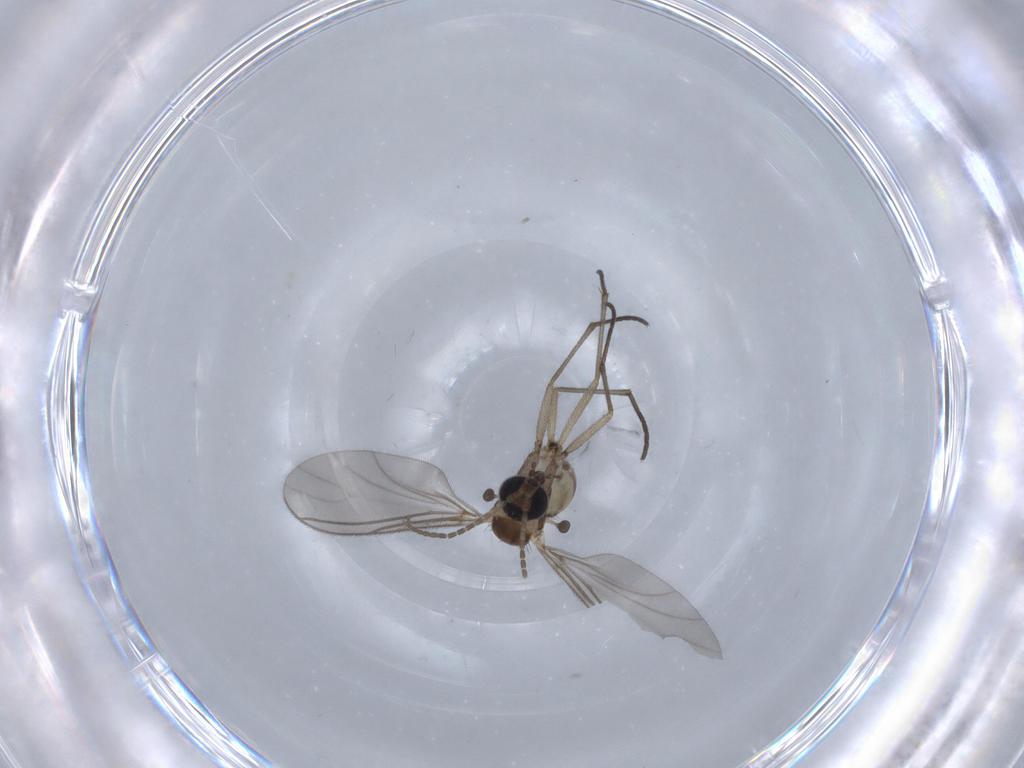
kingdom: Animalia
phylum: Arthropoda
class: Insecta
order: Diptera
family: Sciaridae
